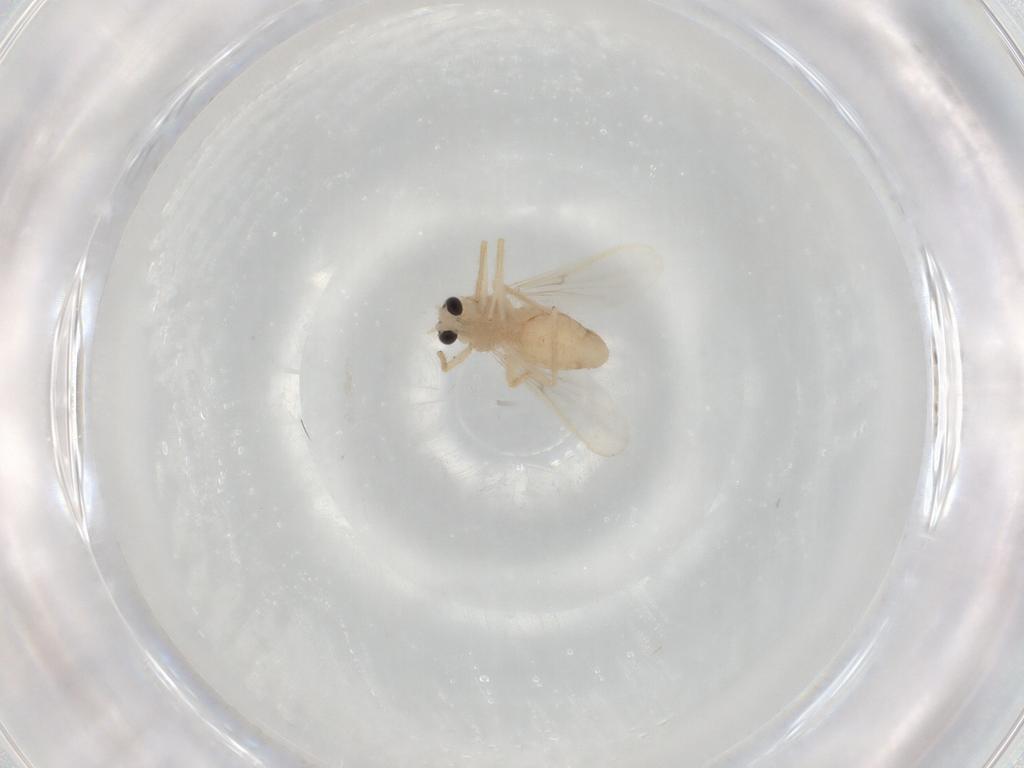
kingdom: Animalia
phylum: Arthropoda
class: Insecta
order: Diptera
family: Chironomidae
